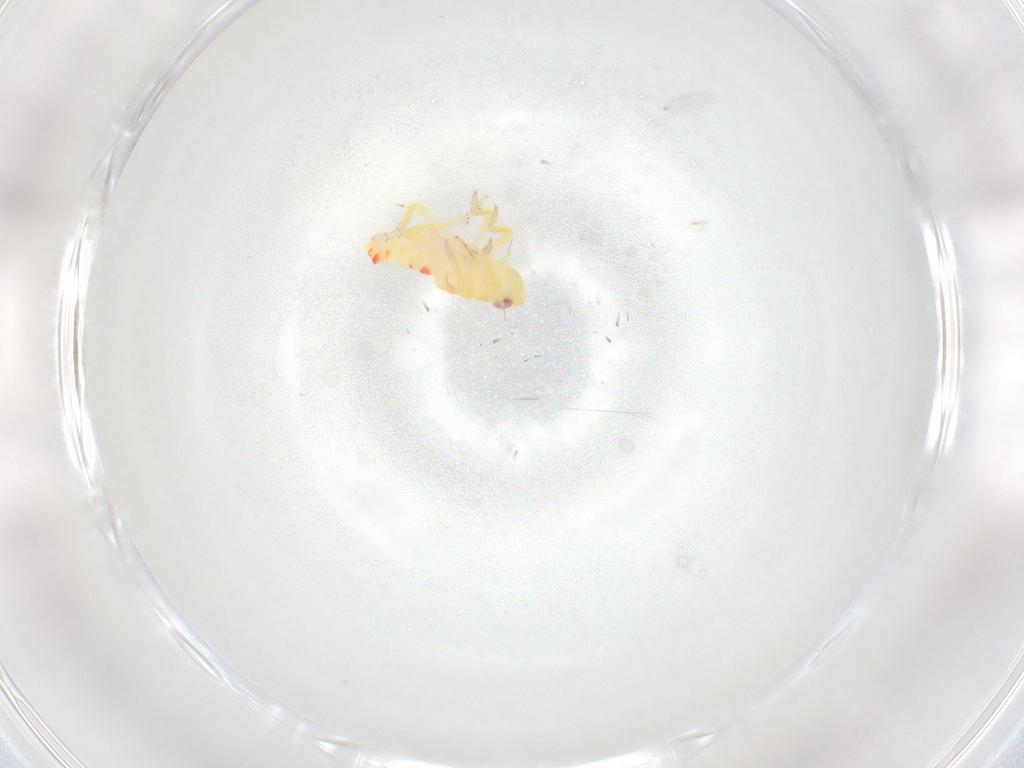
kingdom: Animalia
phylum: Arthropoda
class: Insecta
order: Hemiptera
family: Tropiduchidae
